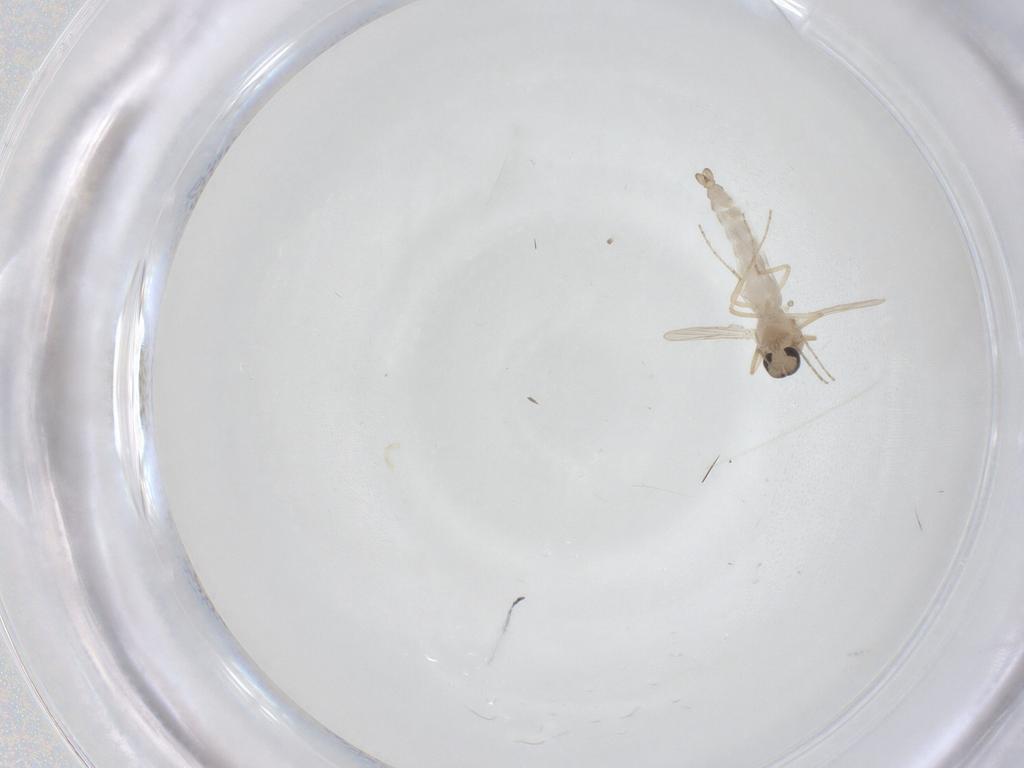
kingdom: Animalia
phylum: Arthropoda
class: Insecta
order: Diptera
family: Ceratopogonidae
